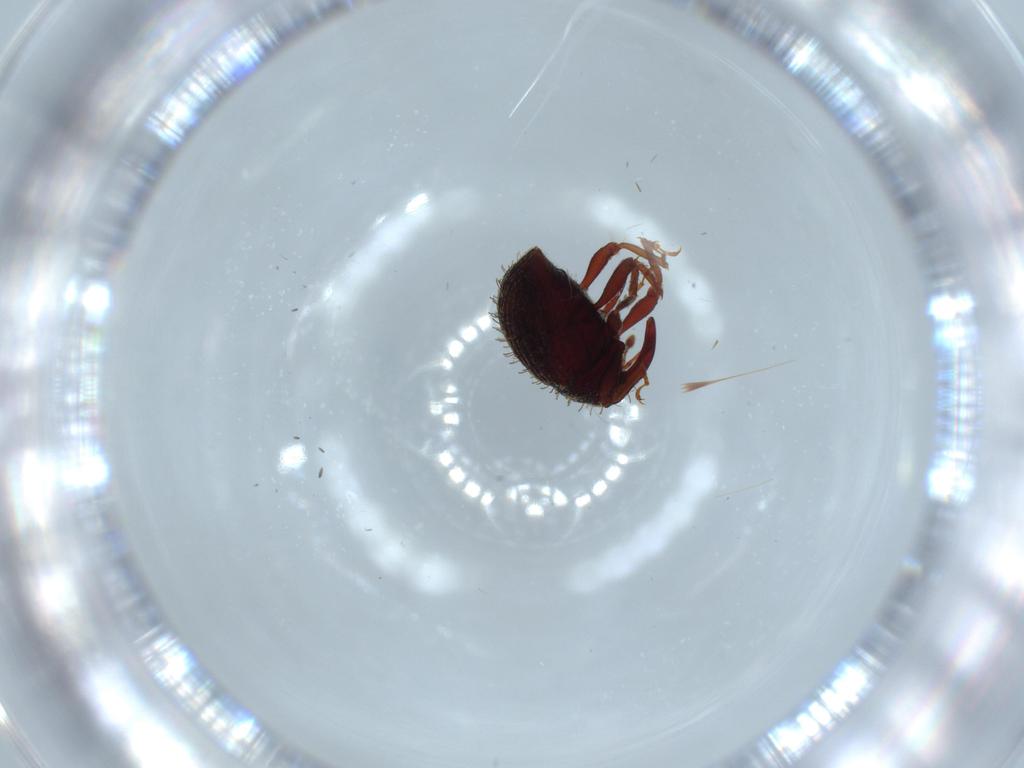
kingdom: Animalia
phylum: Arthropoda
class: Insecta
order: Coleoptera
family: Curculionidae
